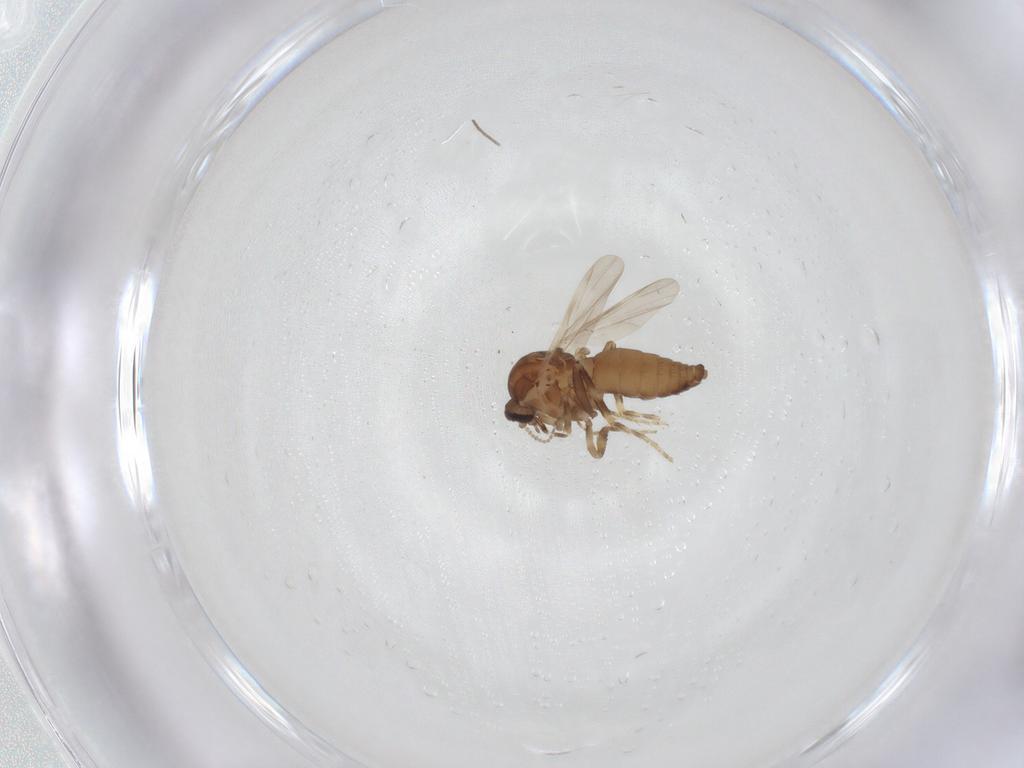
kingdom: Animalia
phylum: Arthropoda
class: Insecta
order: Diptera
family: Ceratopogonidae
